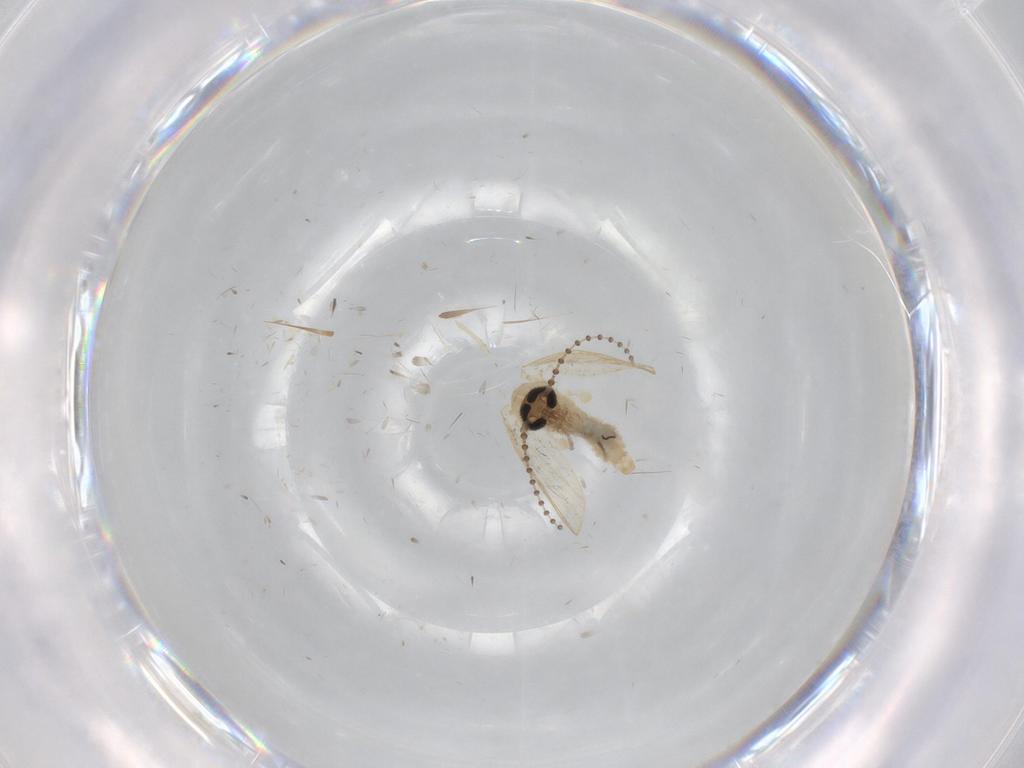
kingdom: Animalia
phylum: Arthropoda
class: Insecta
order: Diptera
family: Psychodidae
